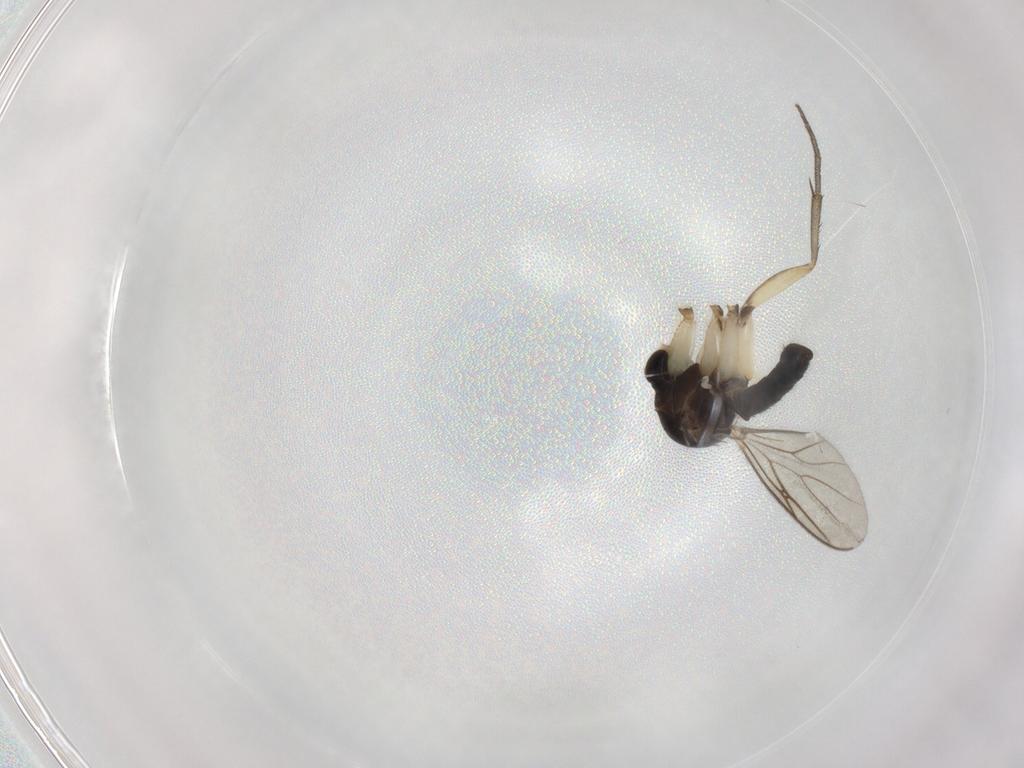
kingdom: Animalia
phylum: Arthropoda
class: Insecta
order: Diptera
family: Mycetophilidae
